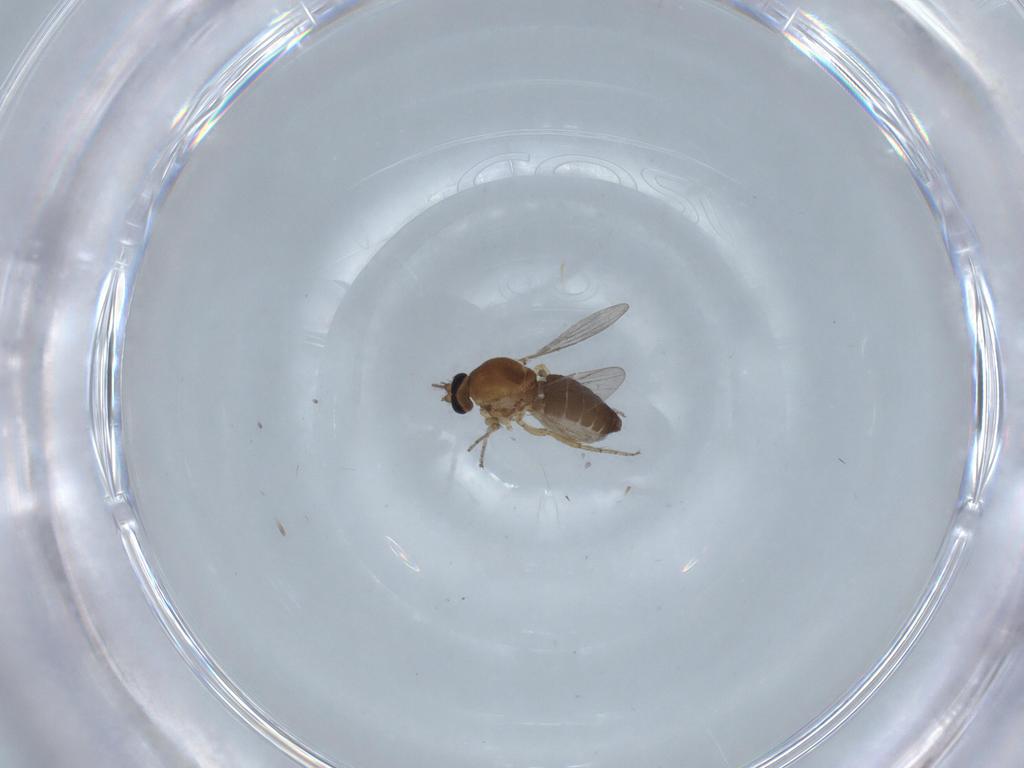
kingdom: Animalia
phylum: Arthropoda
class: Insecta
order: Diptera
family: Ceratopogonidae
